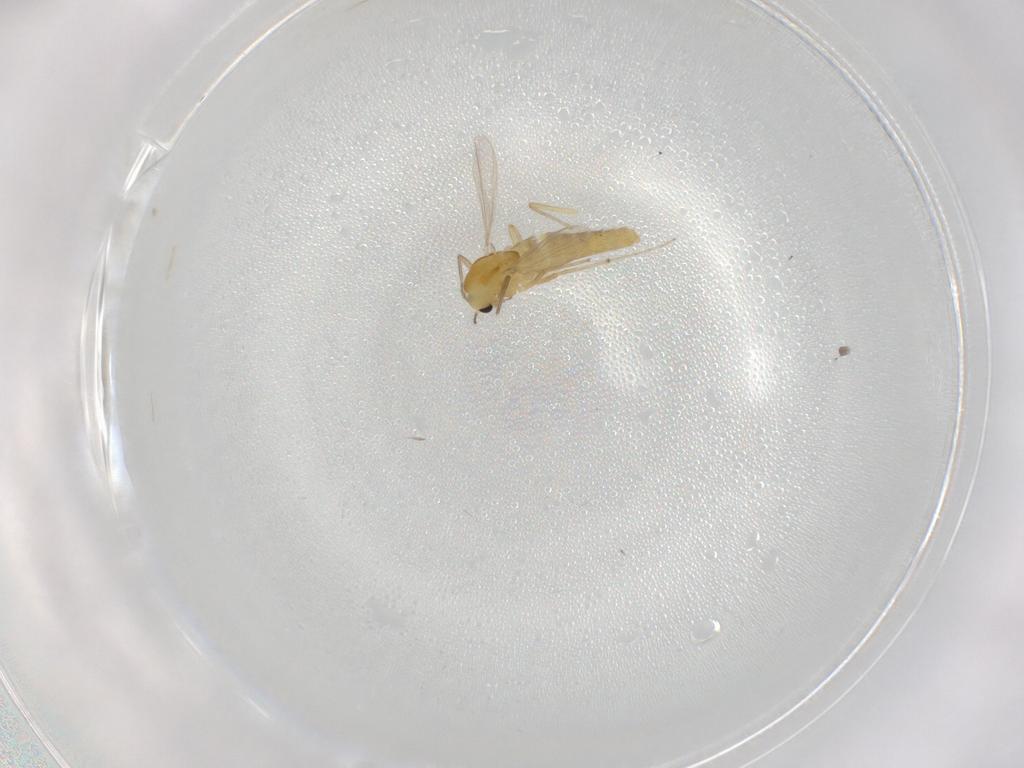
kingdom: Animalia
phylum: Arthropoda
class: Insecta
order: Diptera
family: Chironomidae
